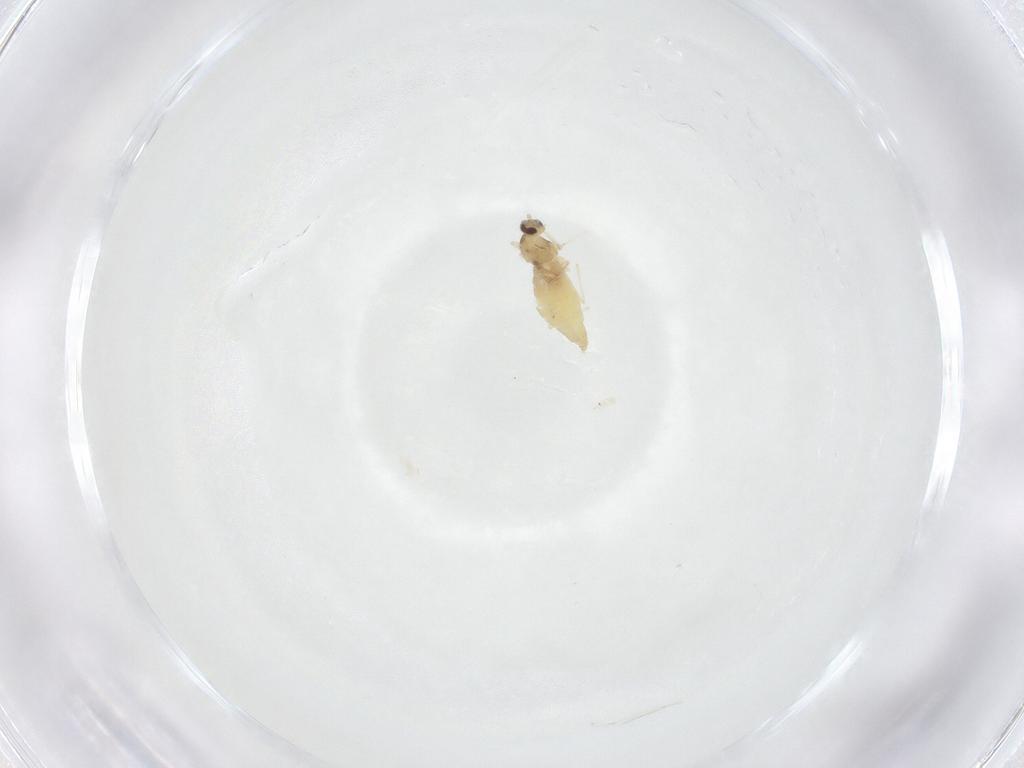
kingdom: Animalia
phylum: Arthropoda
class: Insecta
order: Diptera
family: Cecidomyiidae
